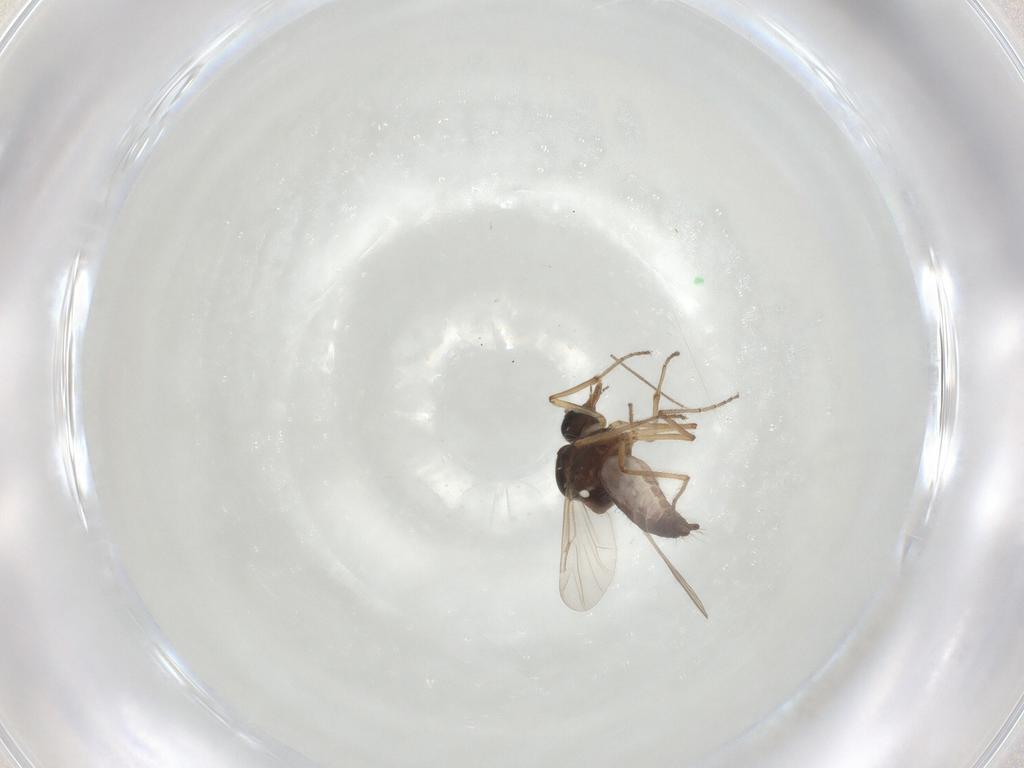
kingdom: Animalia
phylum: Arthropoda
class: Insecta
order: Diptera
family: Ceratopogonidae
